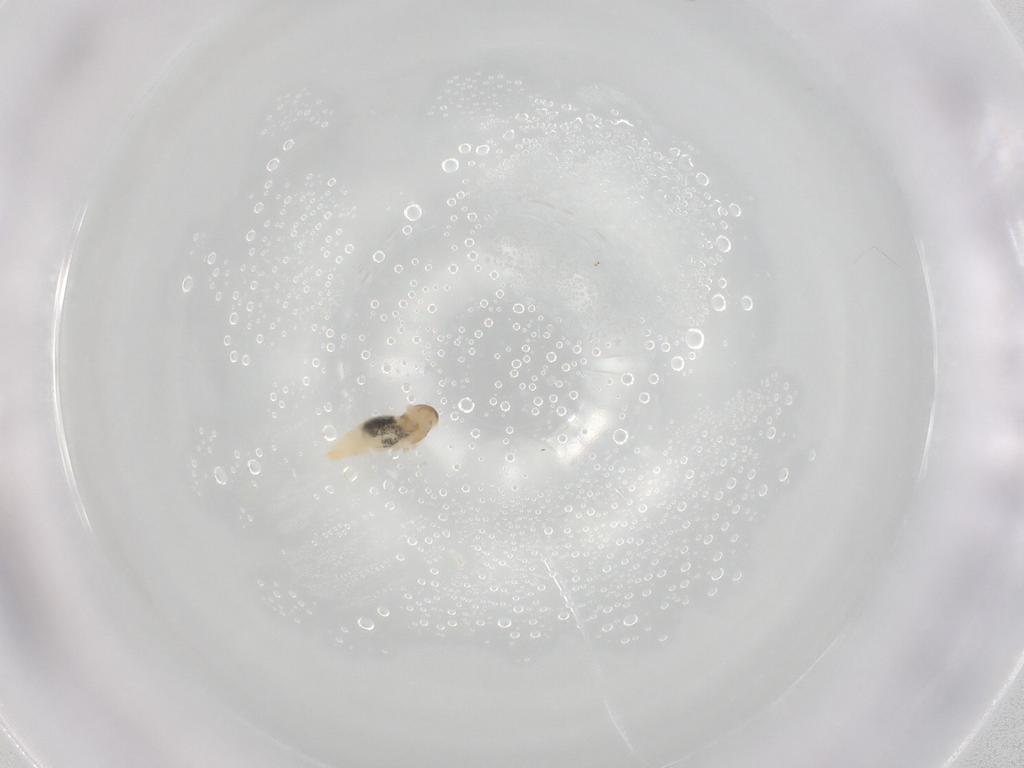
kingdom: Animalia
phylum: Arthropoda
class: Insecta
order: Diptera
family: Cecidomyiidae
